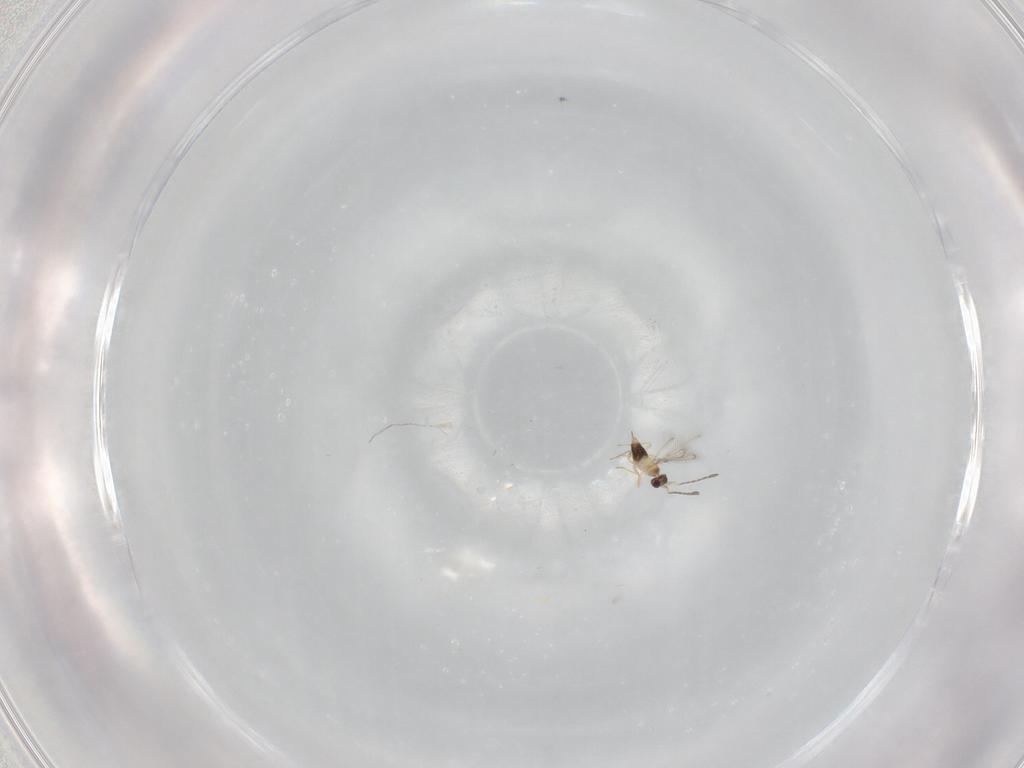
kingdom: Animalia
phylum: Arthropoda
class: Insecta
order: Hymenoptera
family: Mymaridae
